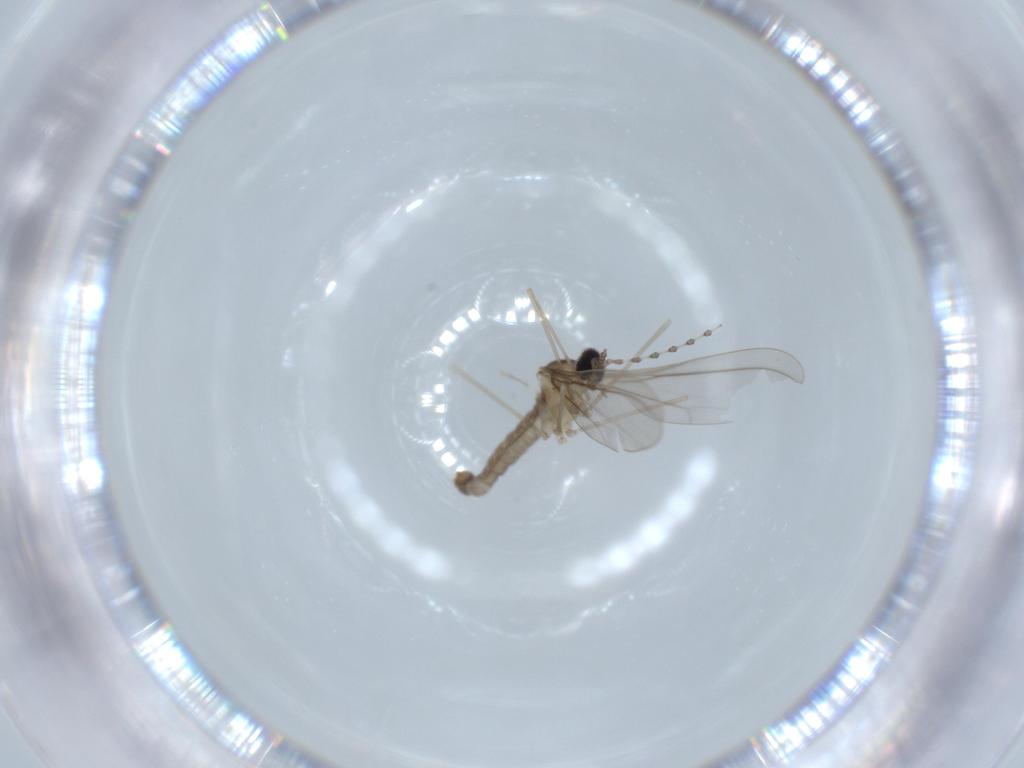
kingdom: Animalia
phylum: Arthropoda
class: Insecta
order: Diptera
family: Cecidomyiidae
